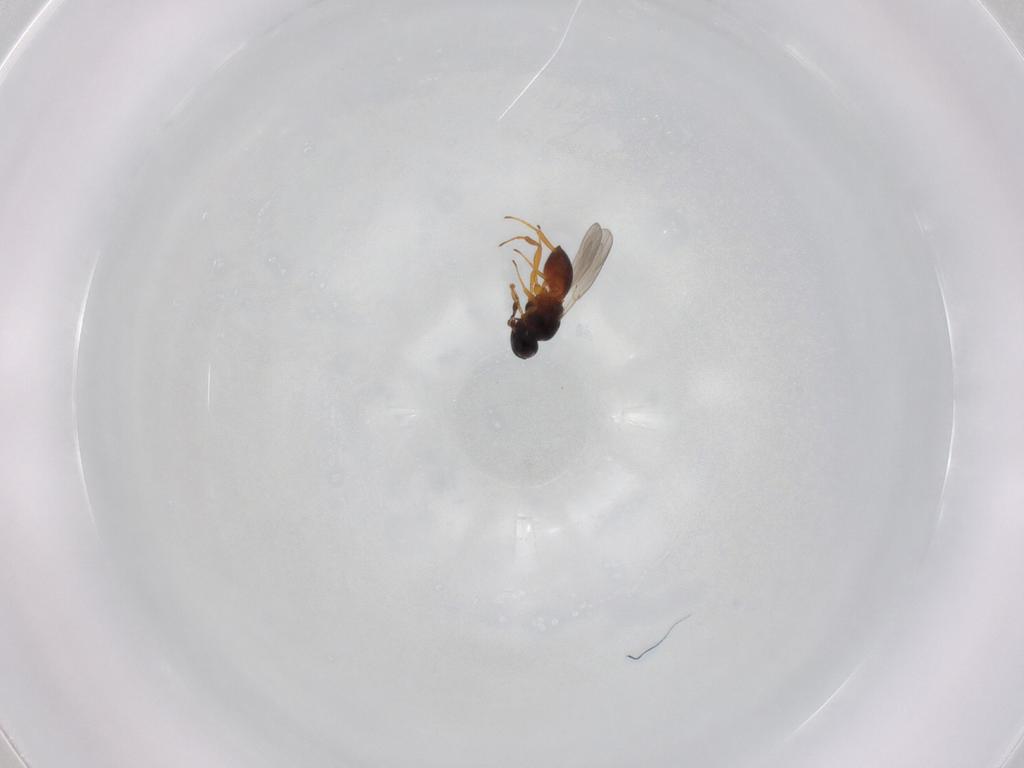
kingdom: Animalia
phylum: Arthropoda
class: Insecta
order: Hymenoptera
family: Platygastridae
